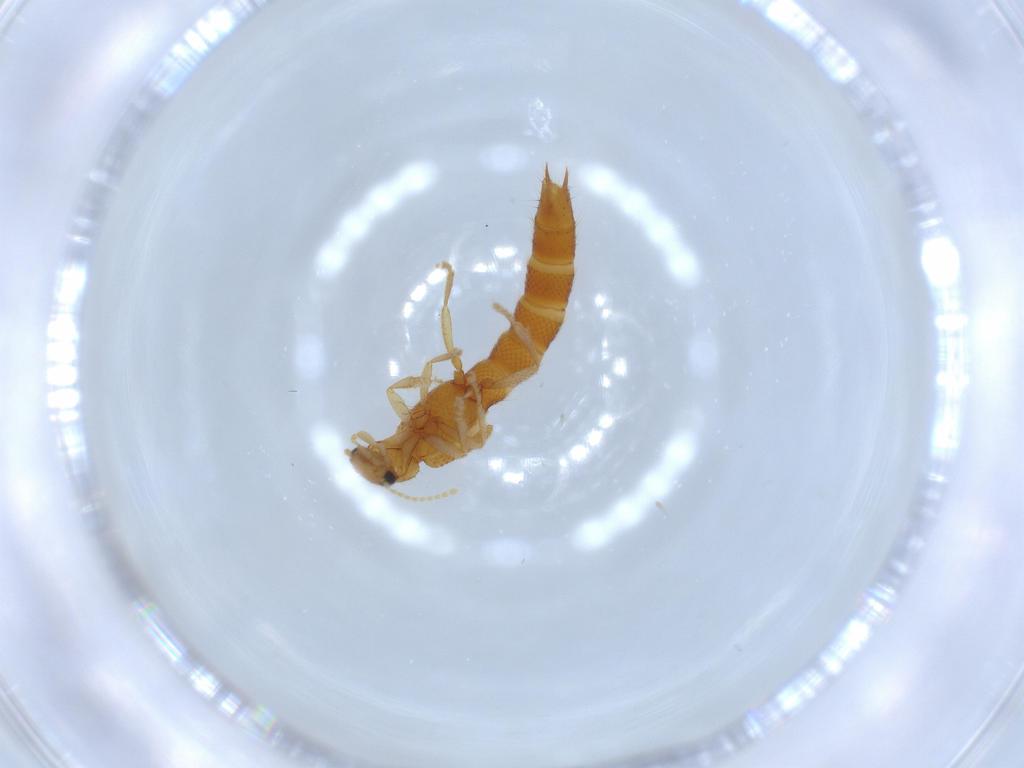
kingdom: Animalia
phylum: Arthropoda
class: Insecta
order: Coleoptera
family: Staphylinidae
